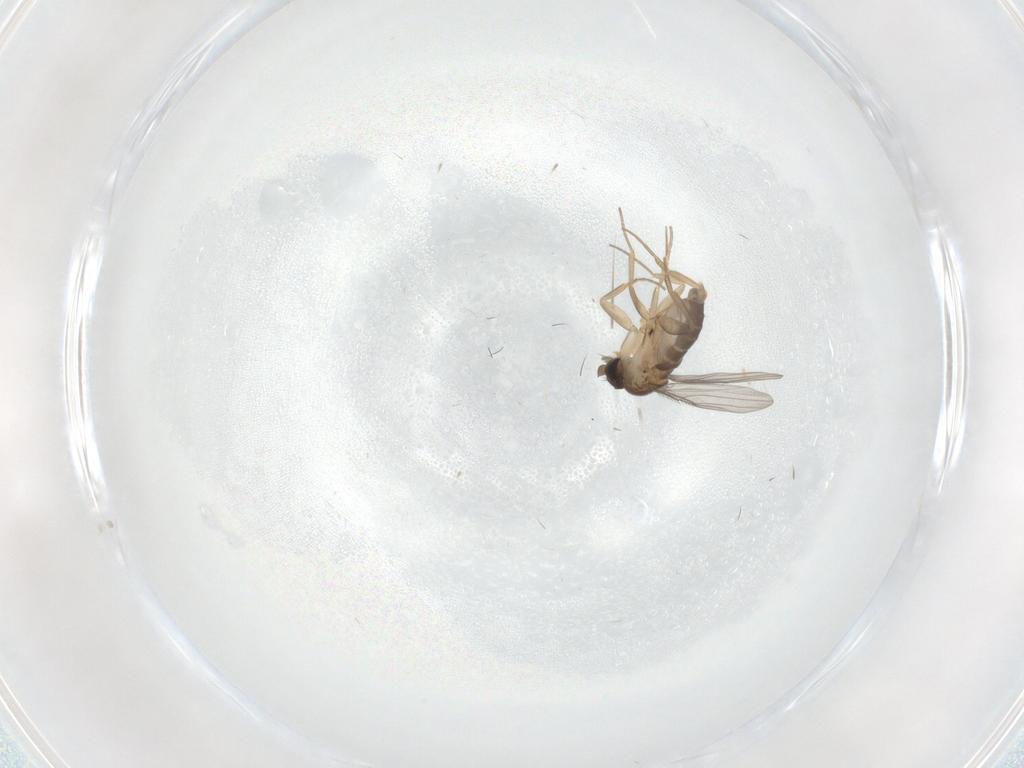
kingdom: Animalia
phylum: Arthropoda
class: Insecta
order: Diptera
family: Phoridae
